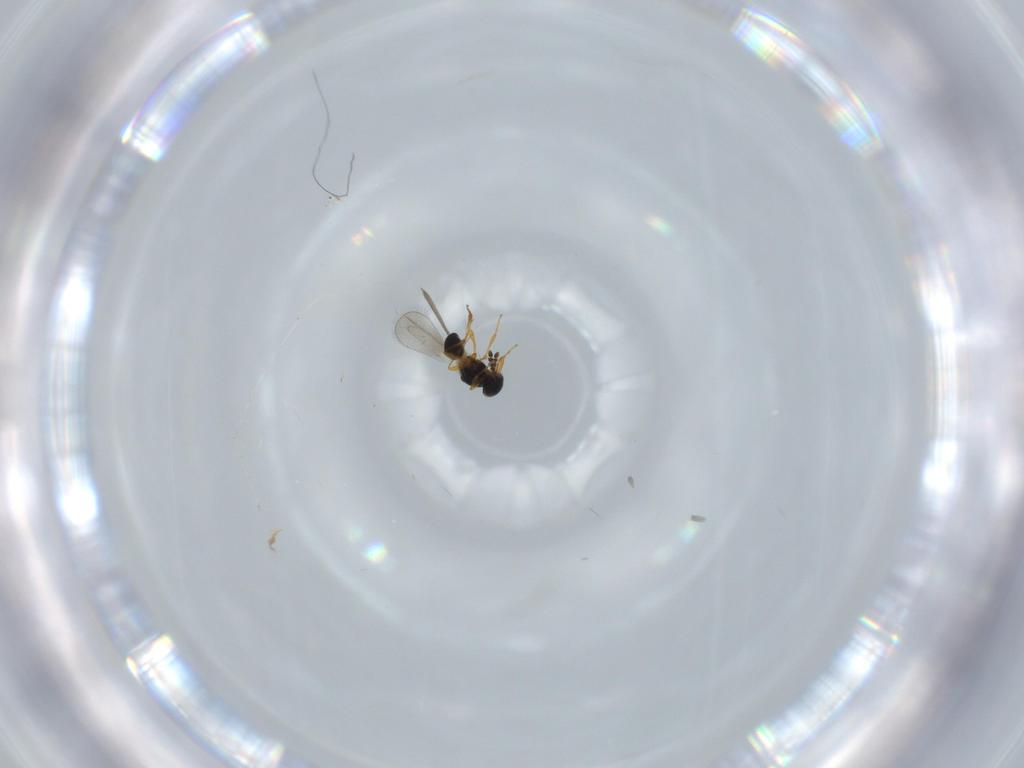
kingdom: Animalia
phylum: Arthropoda
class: Insecta
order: Hymenoptera
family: Platygastridae
